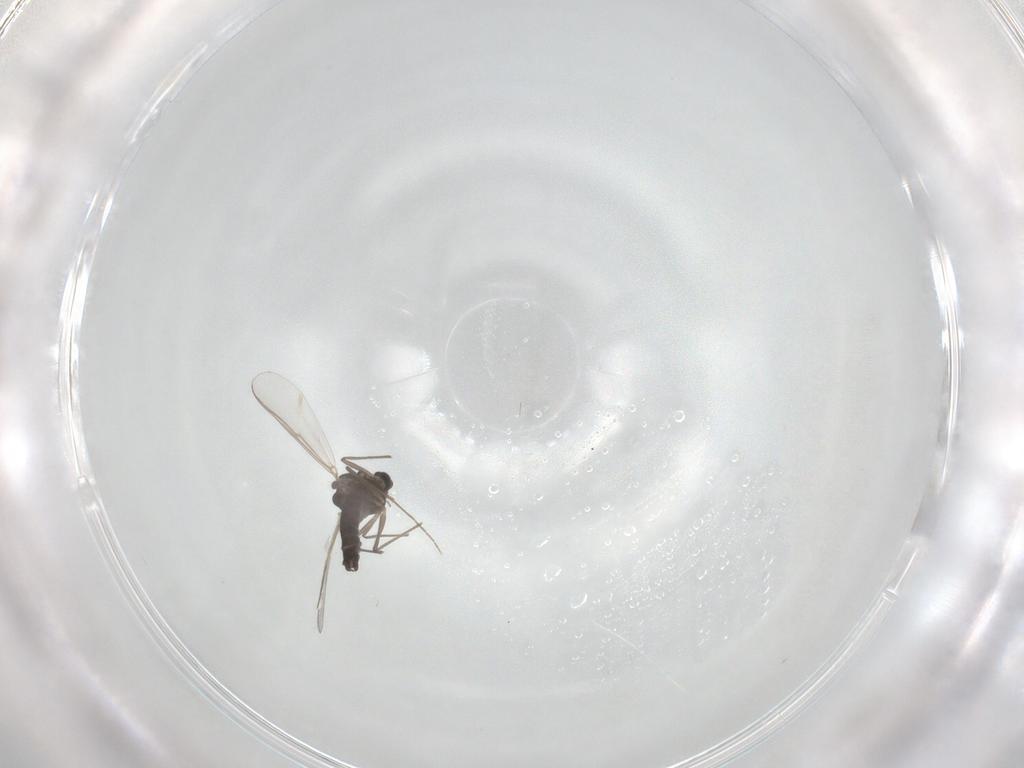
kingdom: Animalia
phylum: Arthropoda
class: Insecta
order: Diptera
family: Chironomidae
